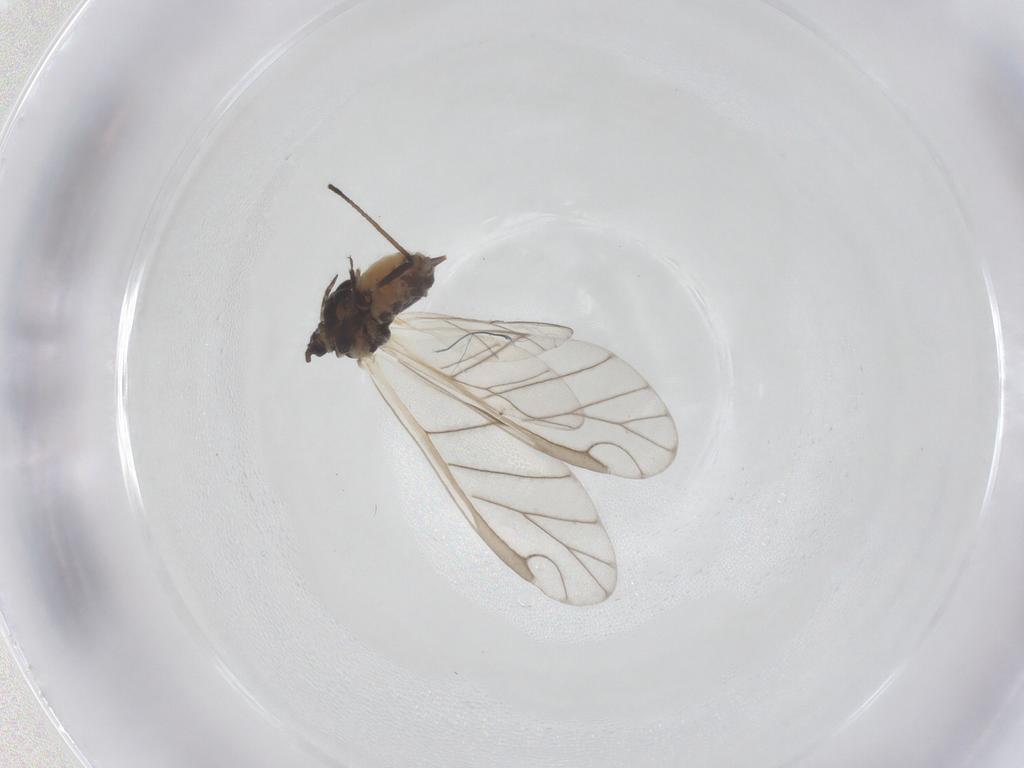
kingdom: Animalia
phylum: Arthropoda
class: Insecta
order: Hemiptera
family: Aphididae
